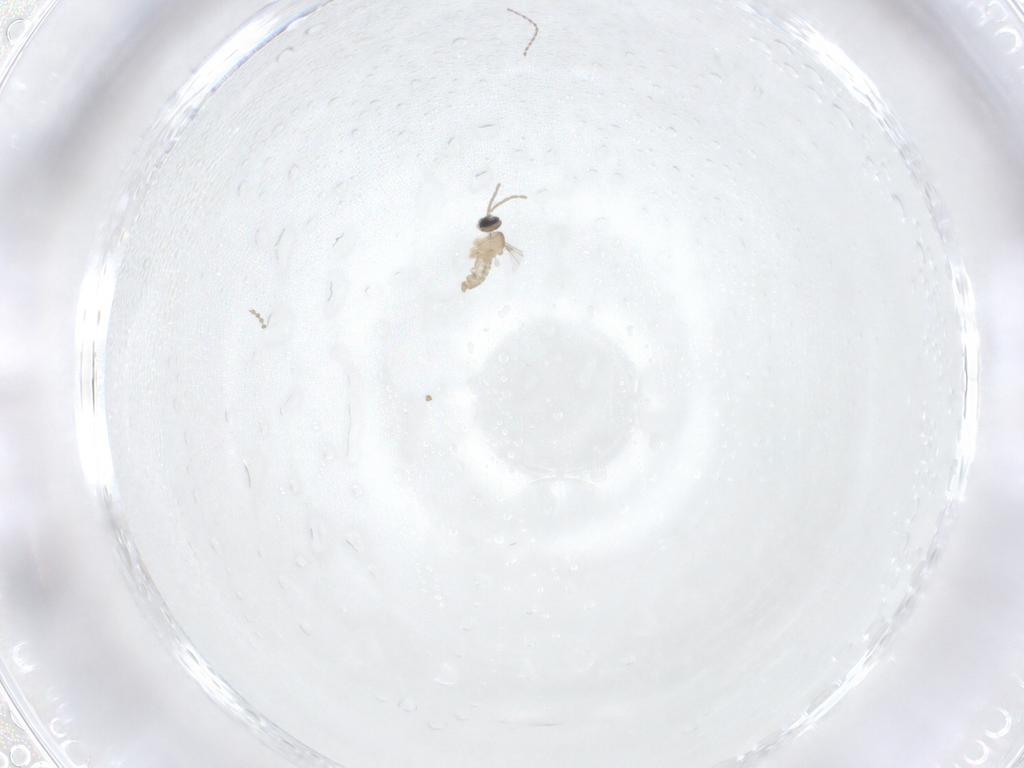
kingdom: Animalia
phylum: Arthropoda
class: Insecta
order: Diptera
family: Cecidomyiidae
